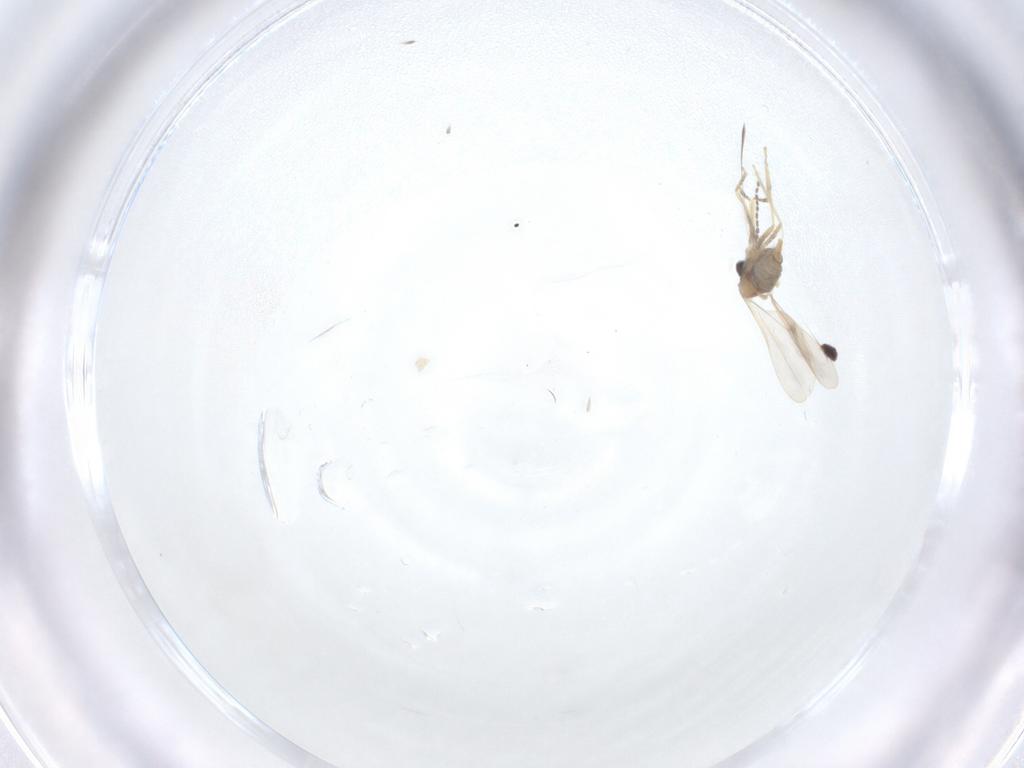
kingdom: Animalia
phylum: Arthropoda
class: Insecta
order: Diptera
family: Cecidomyiidae
